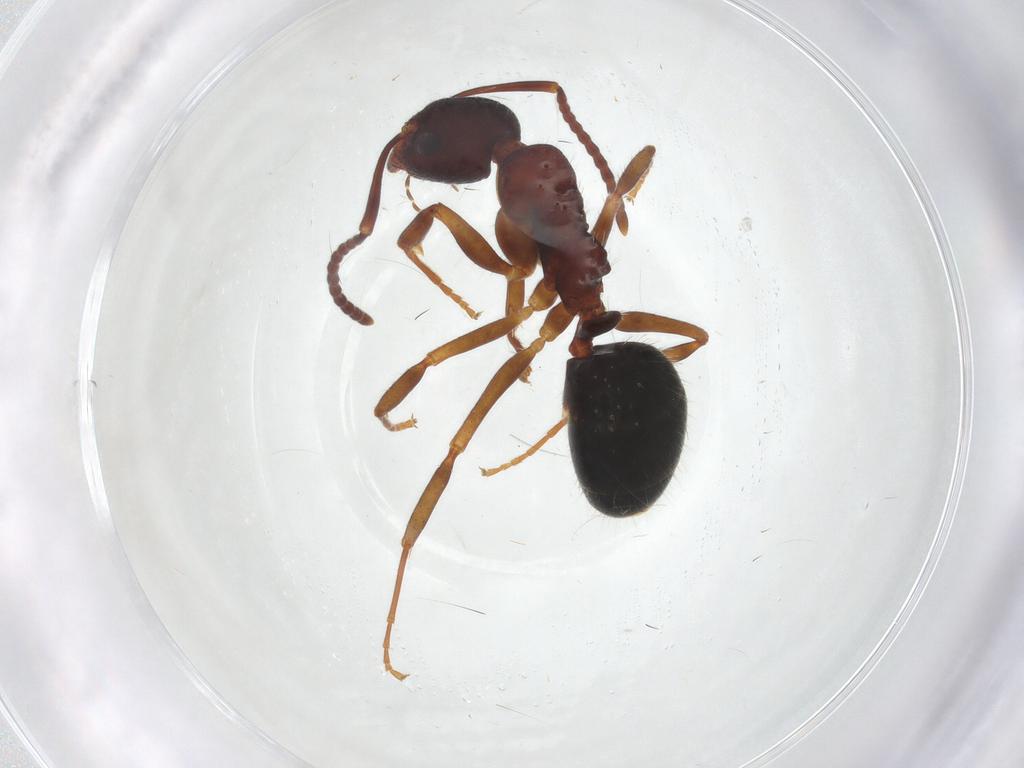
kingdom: Animalia
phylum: Arthropoda
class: Insecta
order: Hymenoptera
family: Formicidae
